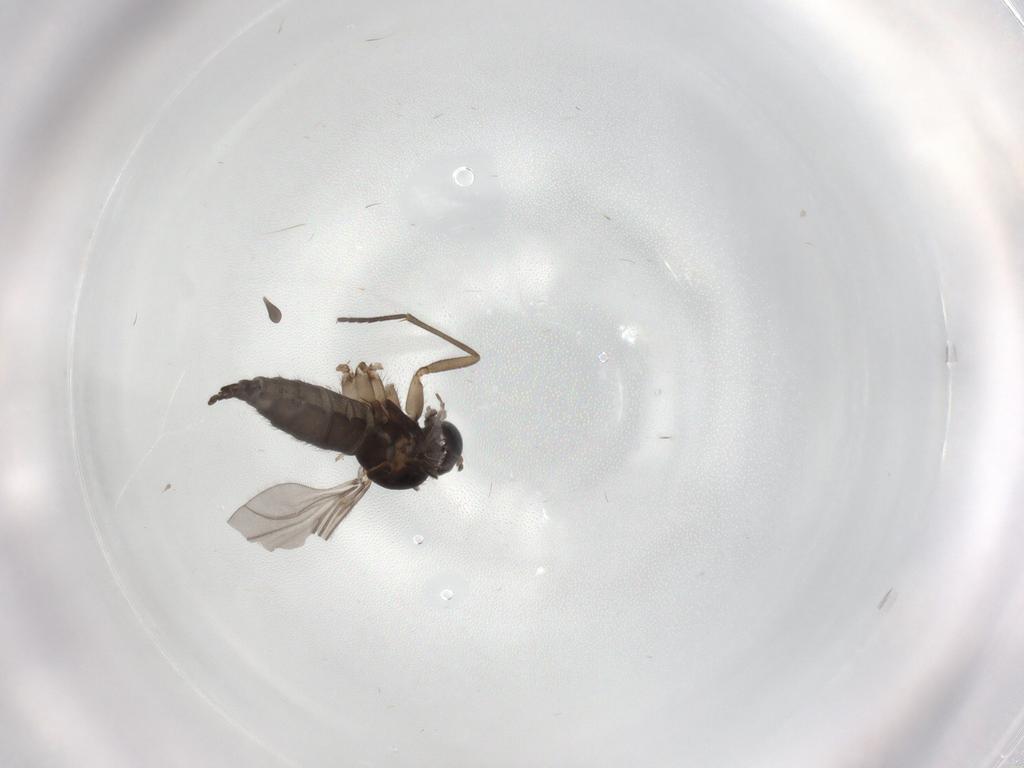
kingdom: Animalia
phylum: Arthropoda
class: Insecta
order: Diptera
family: Sciaridae
